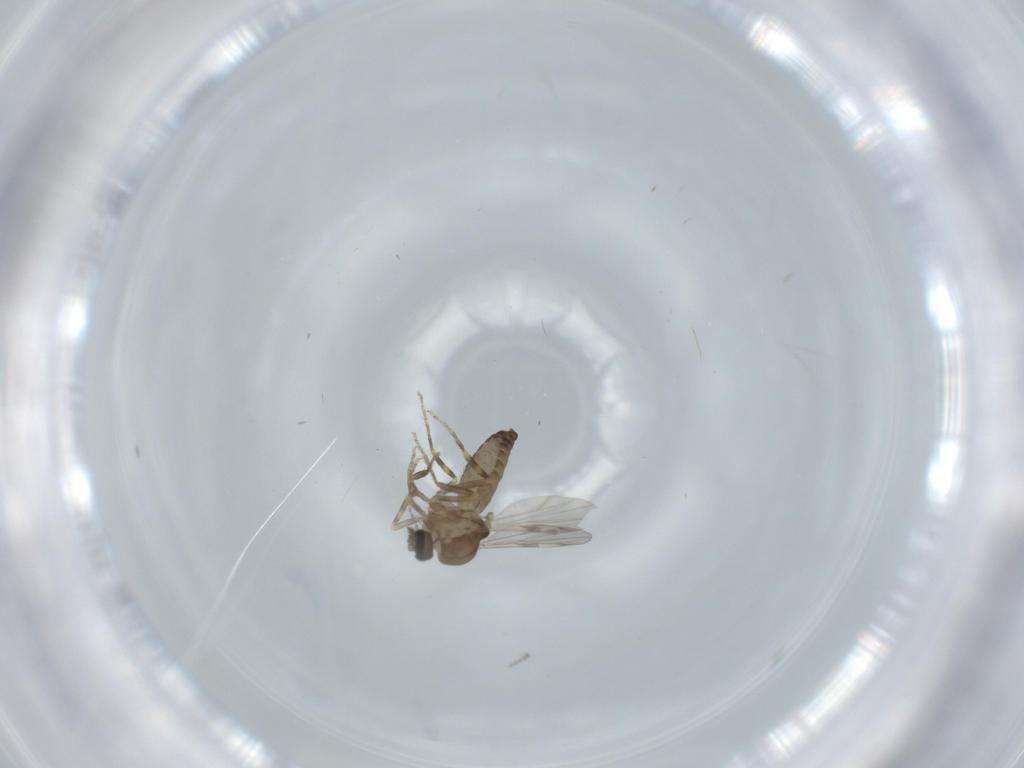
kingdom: Animalia
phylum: Arthropoda
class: Insecta
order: Diptera
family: Ceratopogonidae
